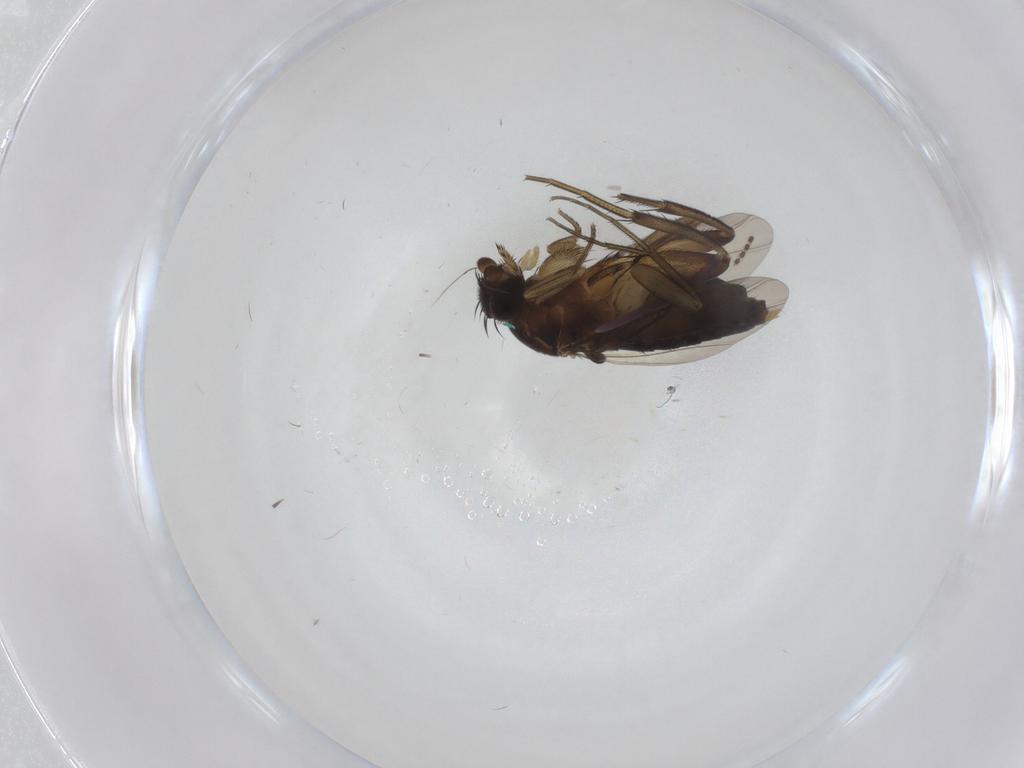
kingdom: Animalia
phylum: Arthropoda
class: Insecta
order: Diptera
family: Phoridae
